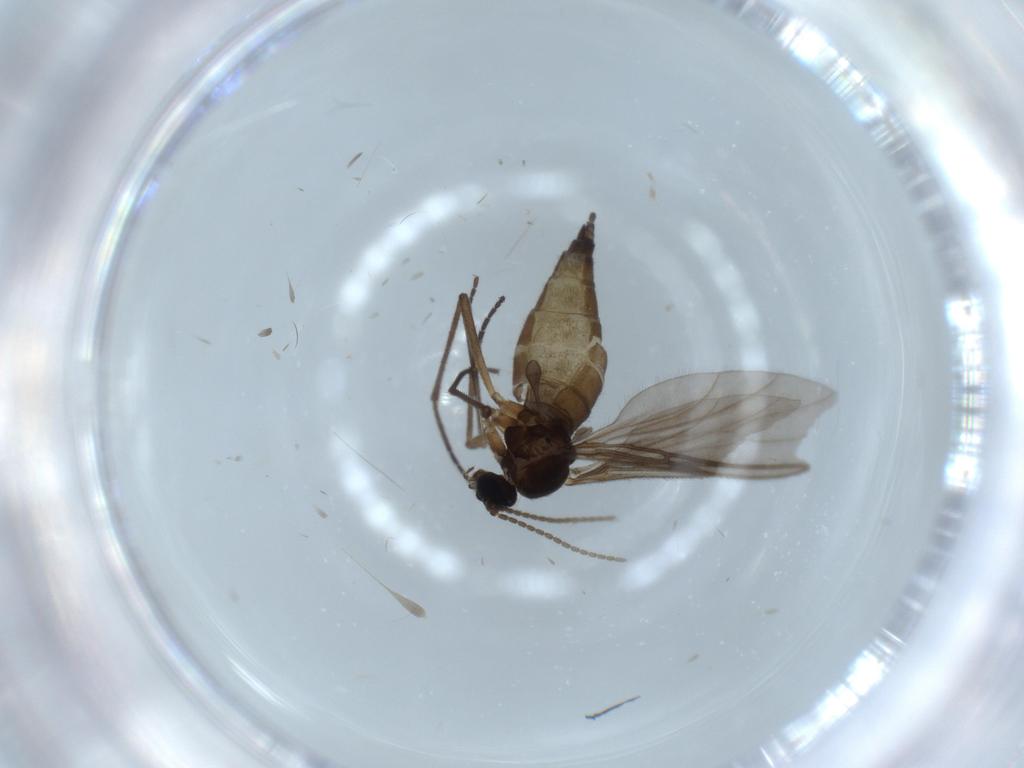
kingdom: Animalia
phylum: Arthropoda
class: Insecta
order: Diptera
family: Sciaridae
